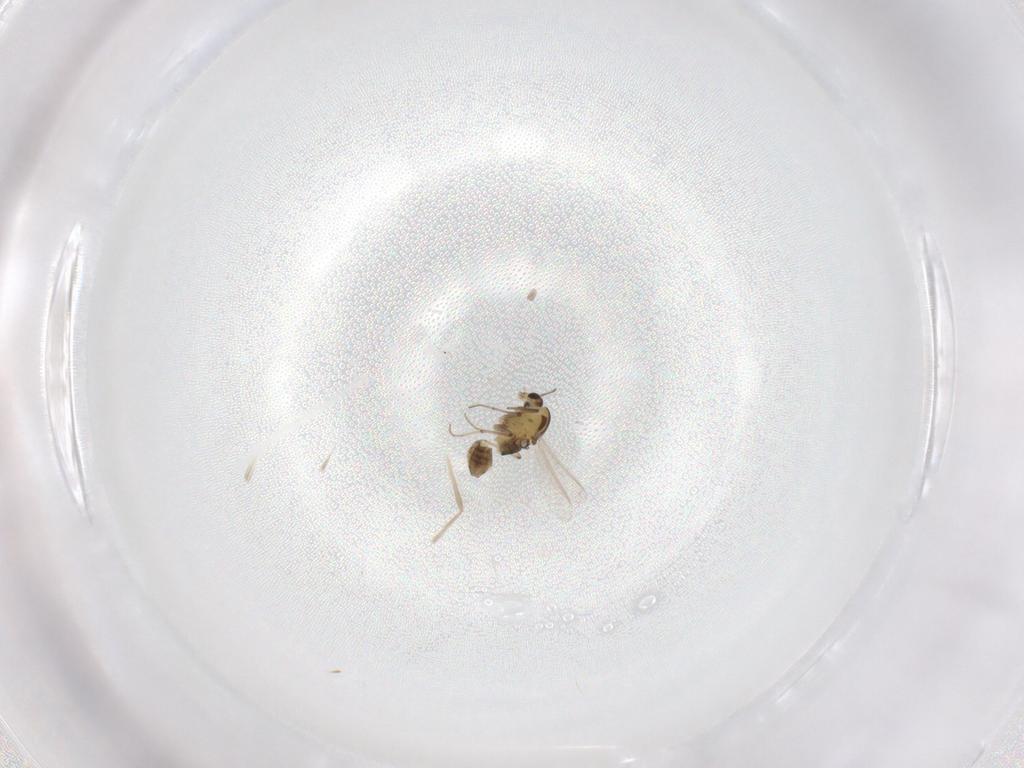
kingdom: Animalia
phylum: Arthropoda
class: Insecta
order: Diptera
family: Chironomidae
